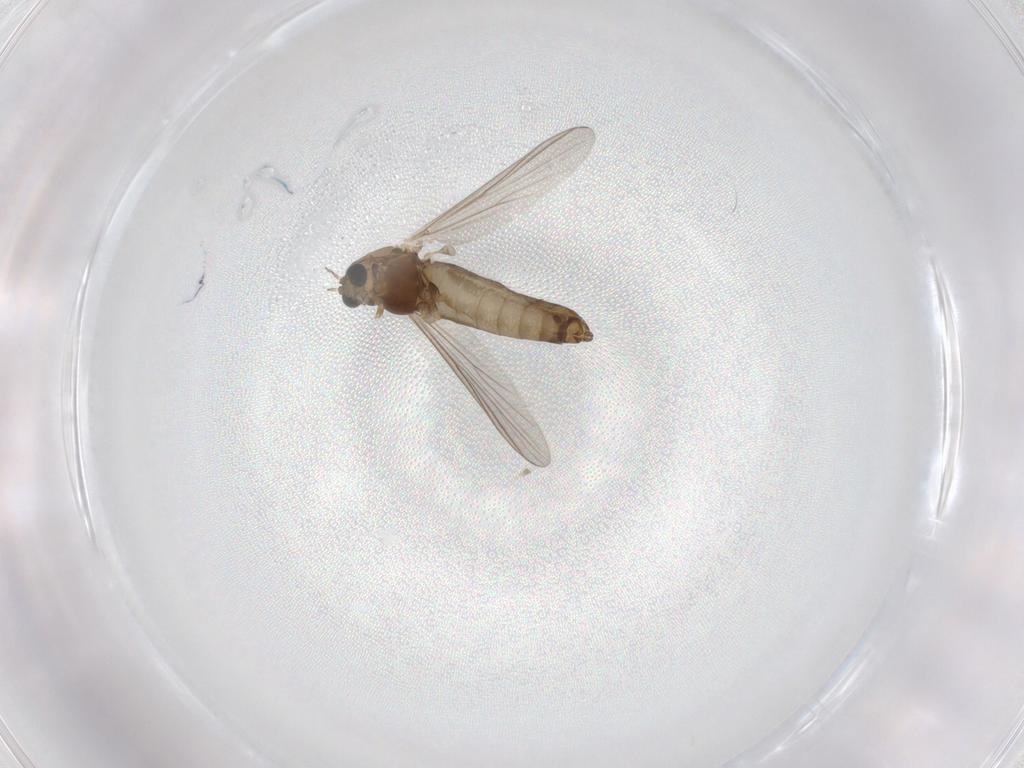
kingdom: Animalia
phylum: Arthropoda
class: Insecta
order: Diptera
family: Chironomidae
